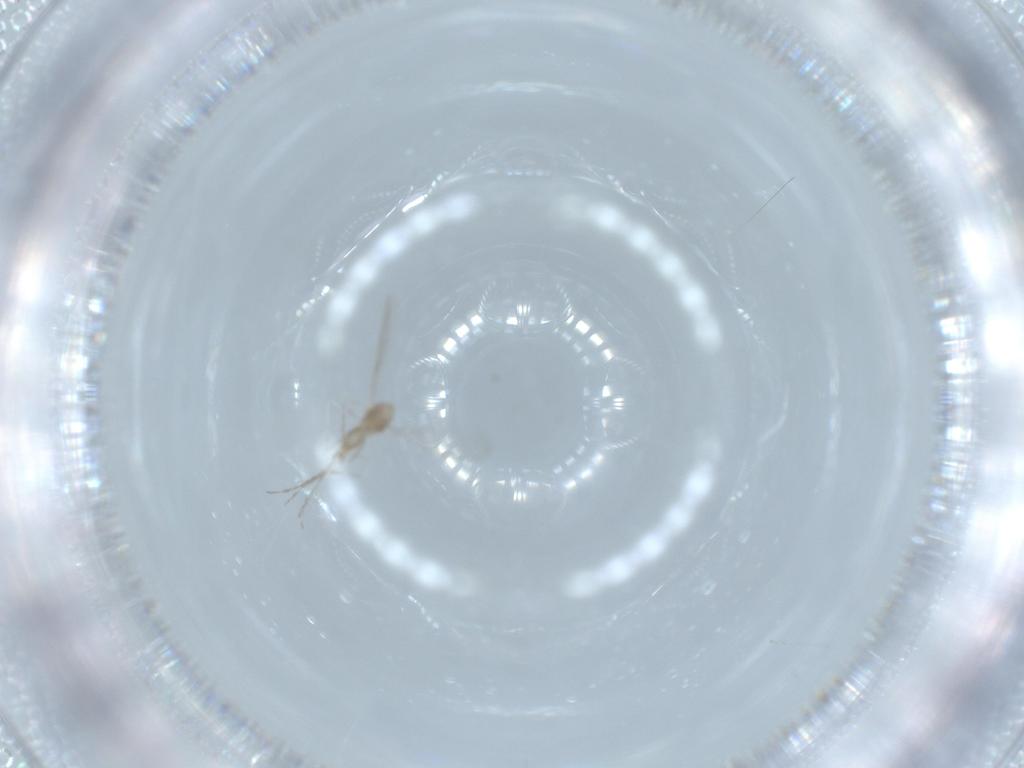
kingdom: Animalia
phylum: Arthropoda
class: Insecta
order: Diptera
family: Cecidomyiidae
